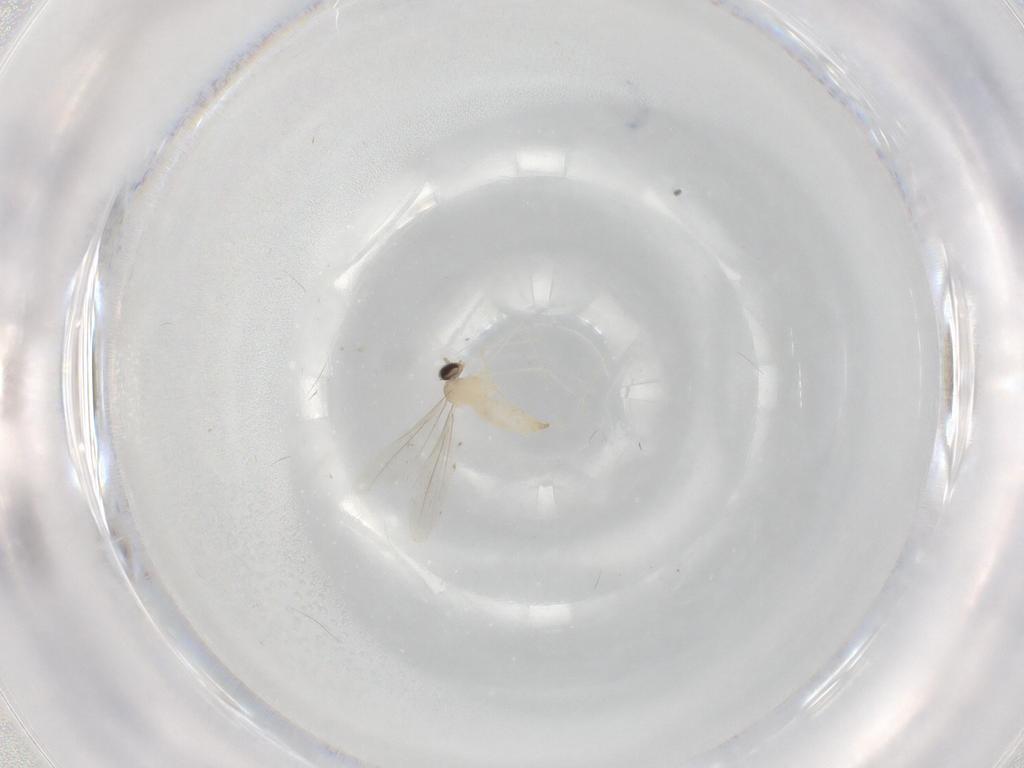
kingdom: Animalia
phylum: Arthropoda
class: Insecta
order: Diptera
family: Cecidomyiidae
